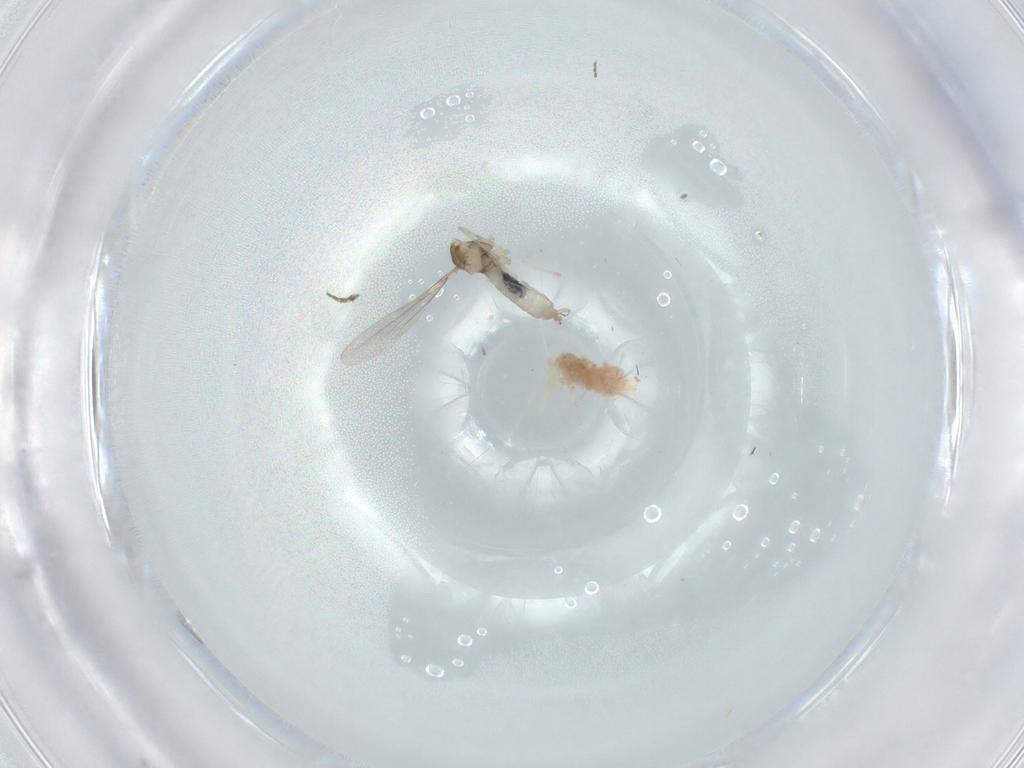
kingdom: Animalia
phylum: Arthropoda
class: Insecta
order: Diptera
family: Cecidomyiidae
